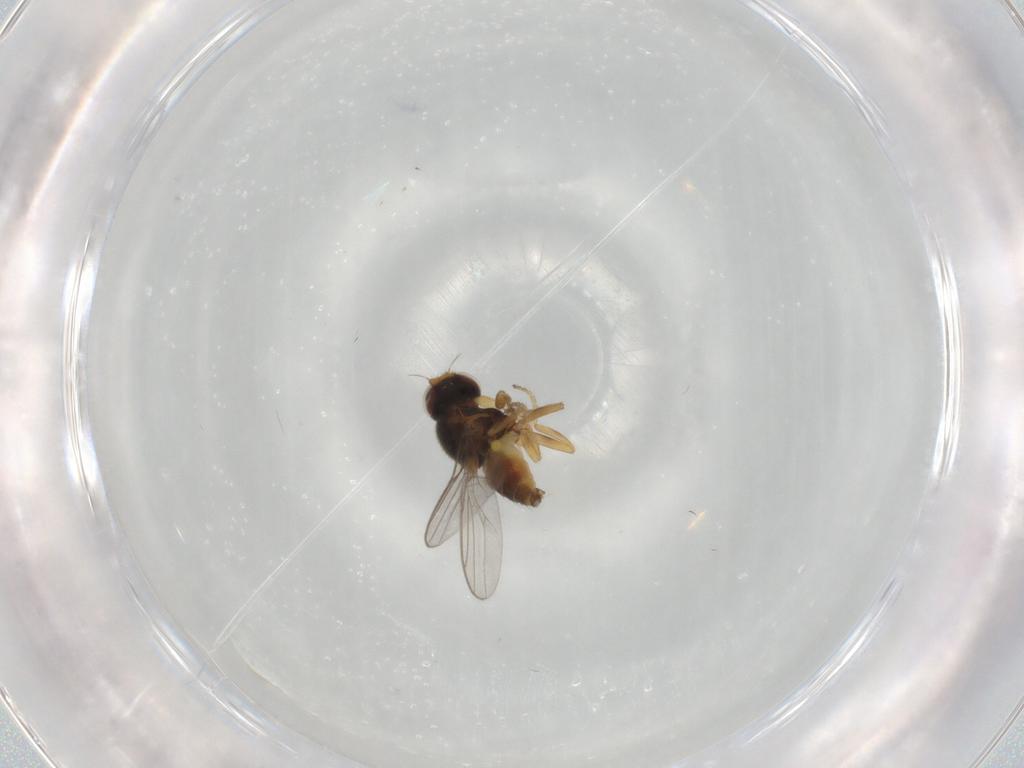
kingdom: Animalia
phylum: Arthropoda
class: Insecta
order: Diptera
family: Chloropidae
